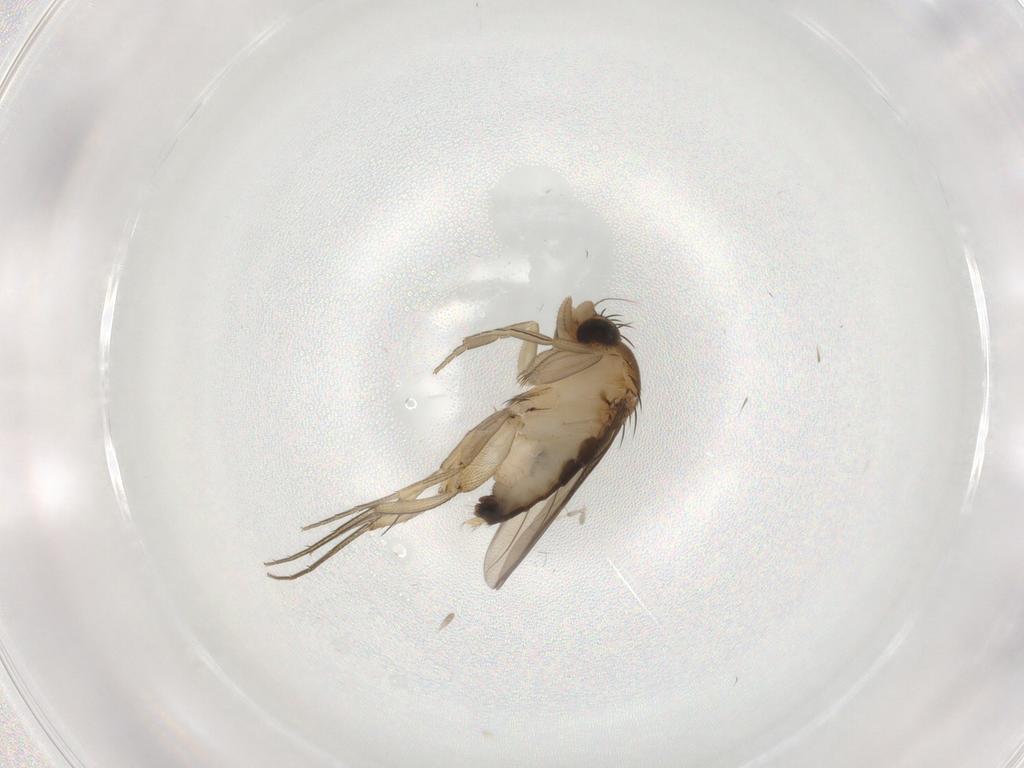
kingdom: Animalia
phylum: Arthropoda
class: Insecta
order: Diptera
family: Phoridae
